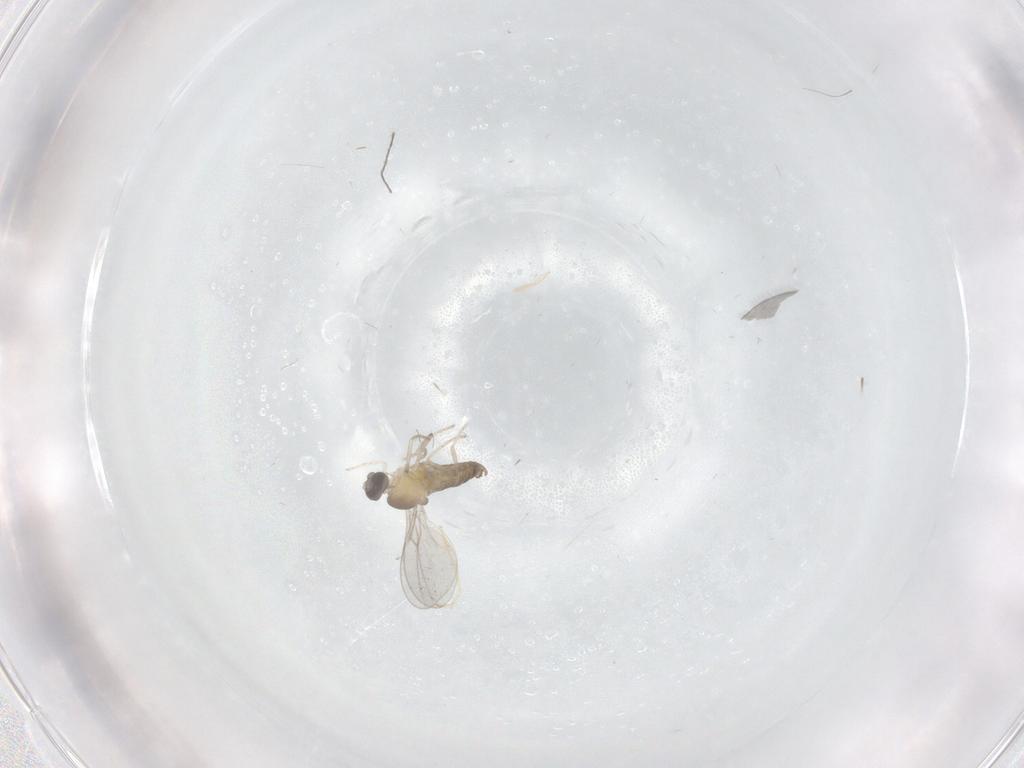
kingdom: Animalia
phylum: Arthropoda
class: Insecta
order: Diptera
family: Cecidomyiidae
